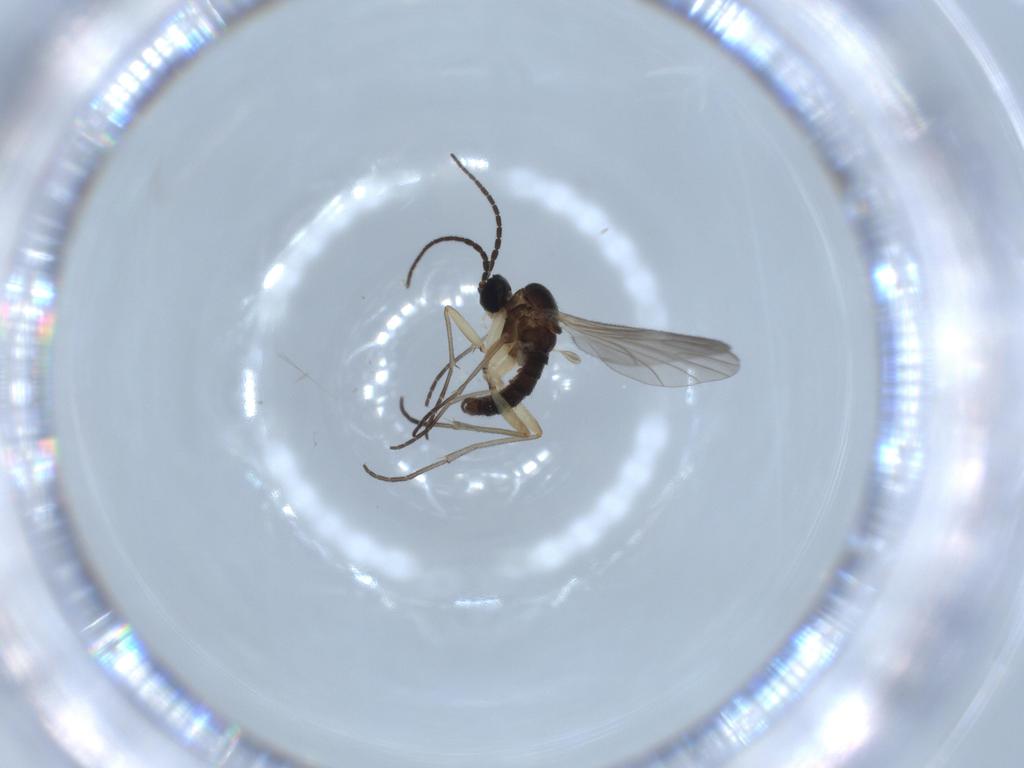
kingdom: Animalia
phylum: Arthropoda
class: Insecta
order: Diptera
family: Sciaridae
